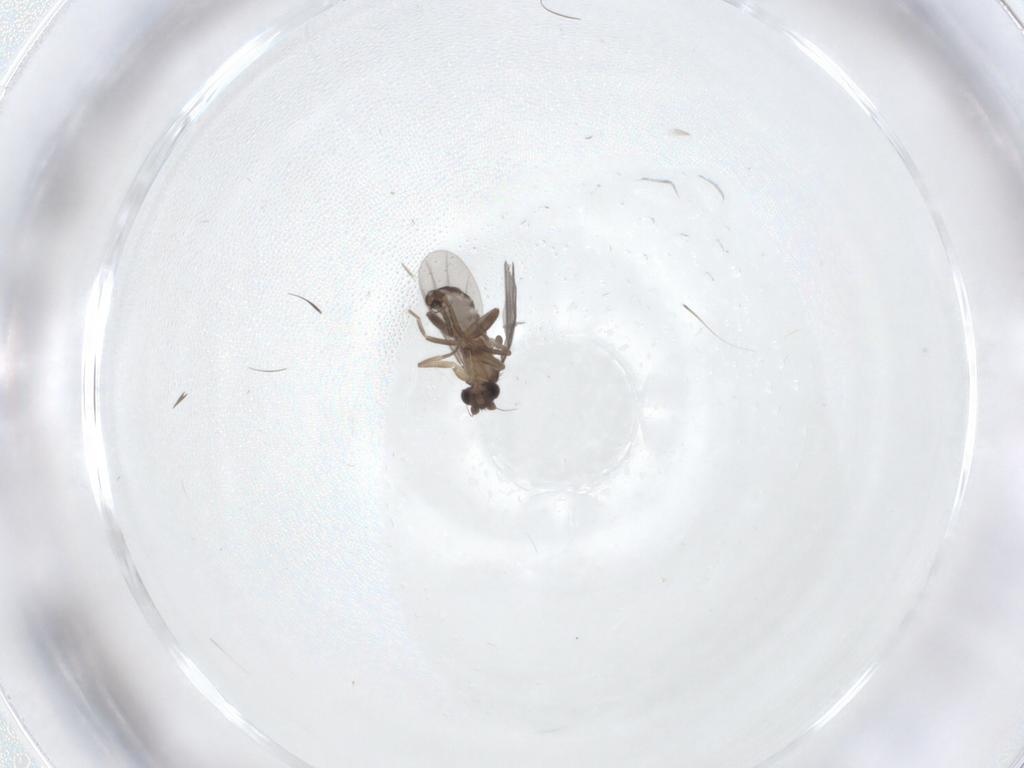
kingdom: Animalia
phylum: Arthropoda
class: Insecta
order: Diptera
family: Phoridae
